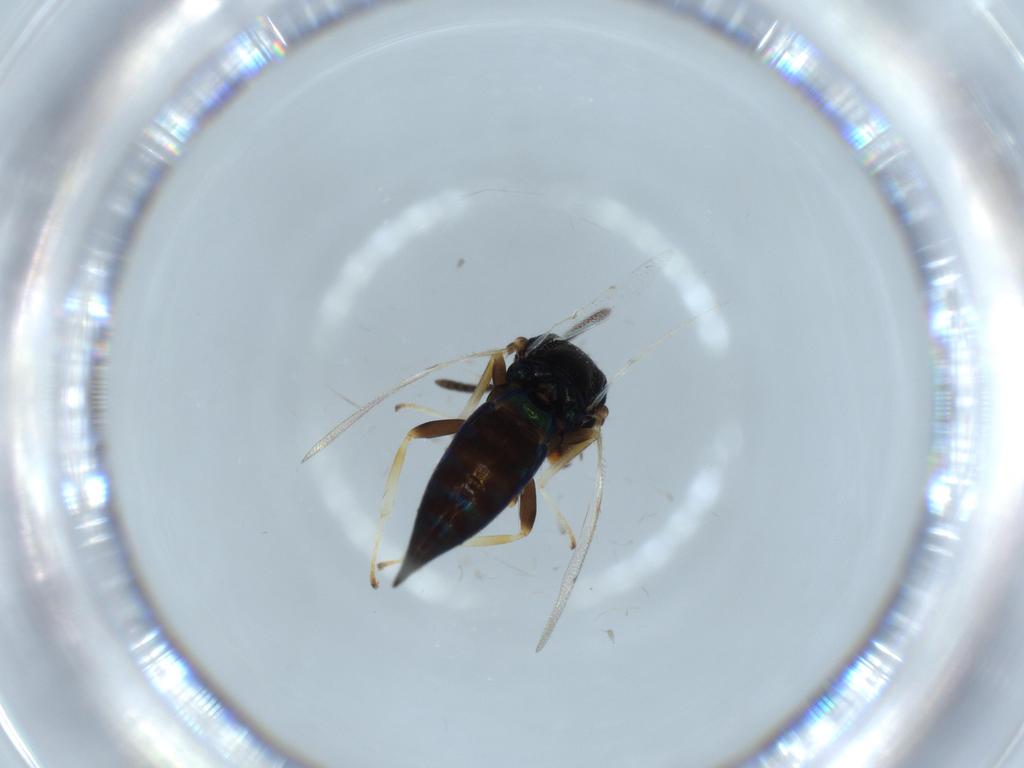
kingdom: Animalia
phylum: Arthropoda
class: Insecta
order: Hymenoptera
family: Pteromalidae
